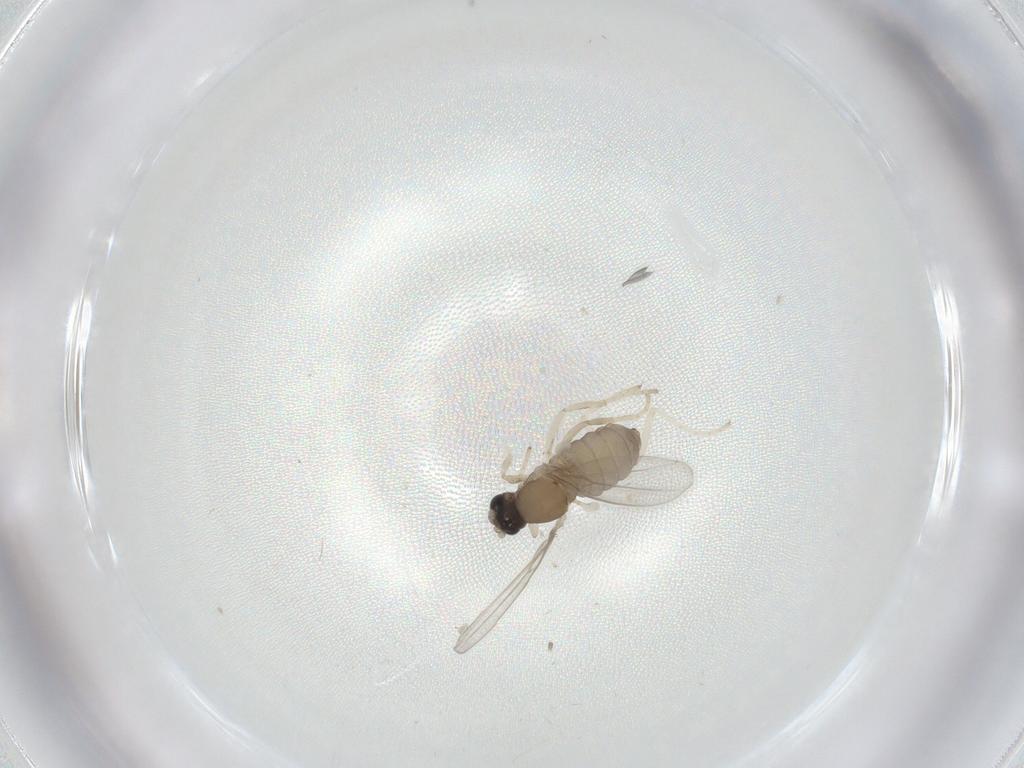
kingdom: Animalia
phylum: Arthropoda
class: Insecta
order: Diptera
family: Cecidomyiidae
